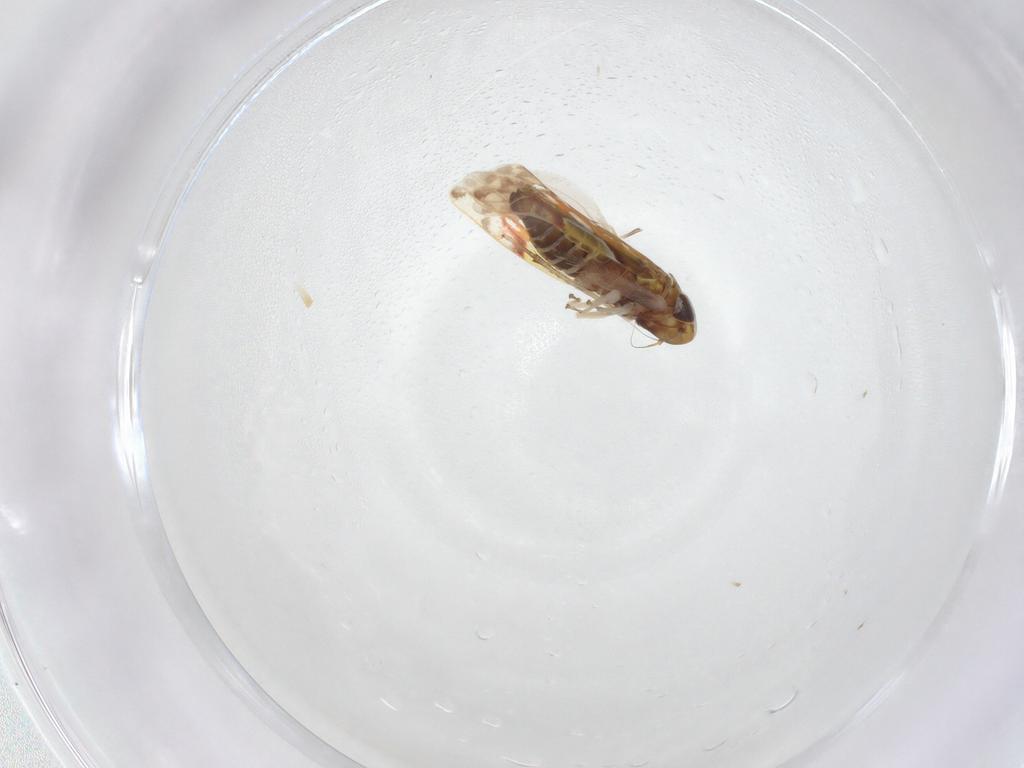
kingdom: Animalia
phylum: Arthropoda
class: Insecta
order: Hemiptera
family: Cicadellidae
